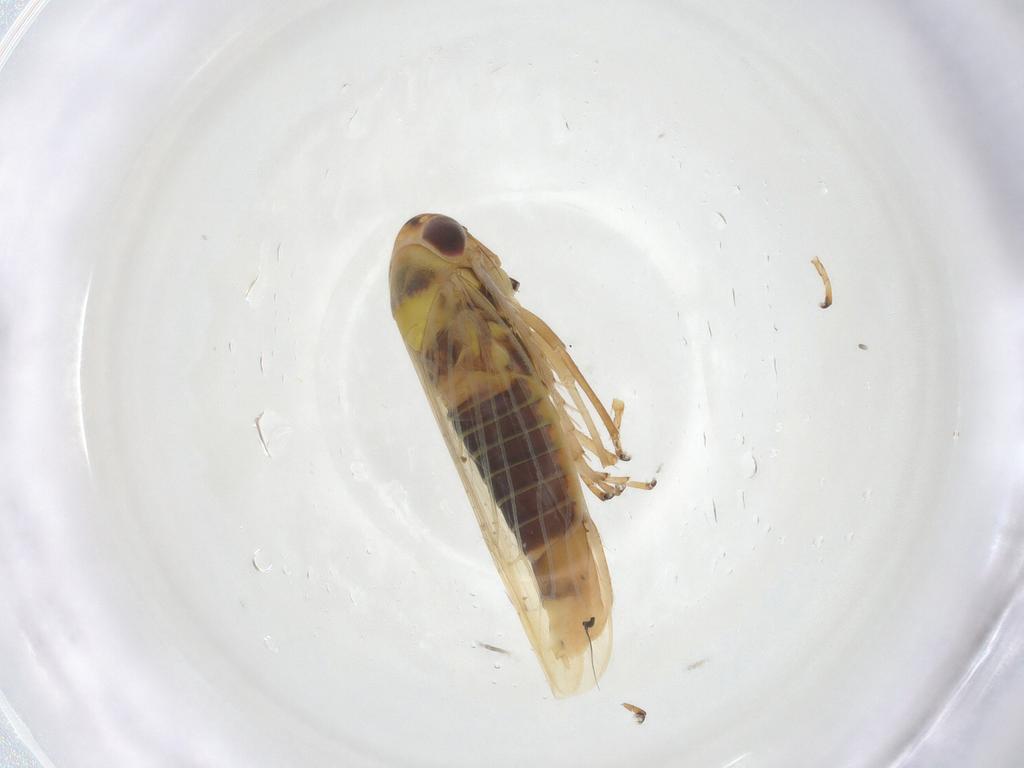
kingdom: Animalia
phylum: Arthropoda
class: Insecta
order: Hemiptera
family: Cicadellidae
